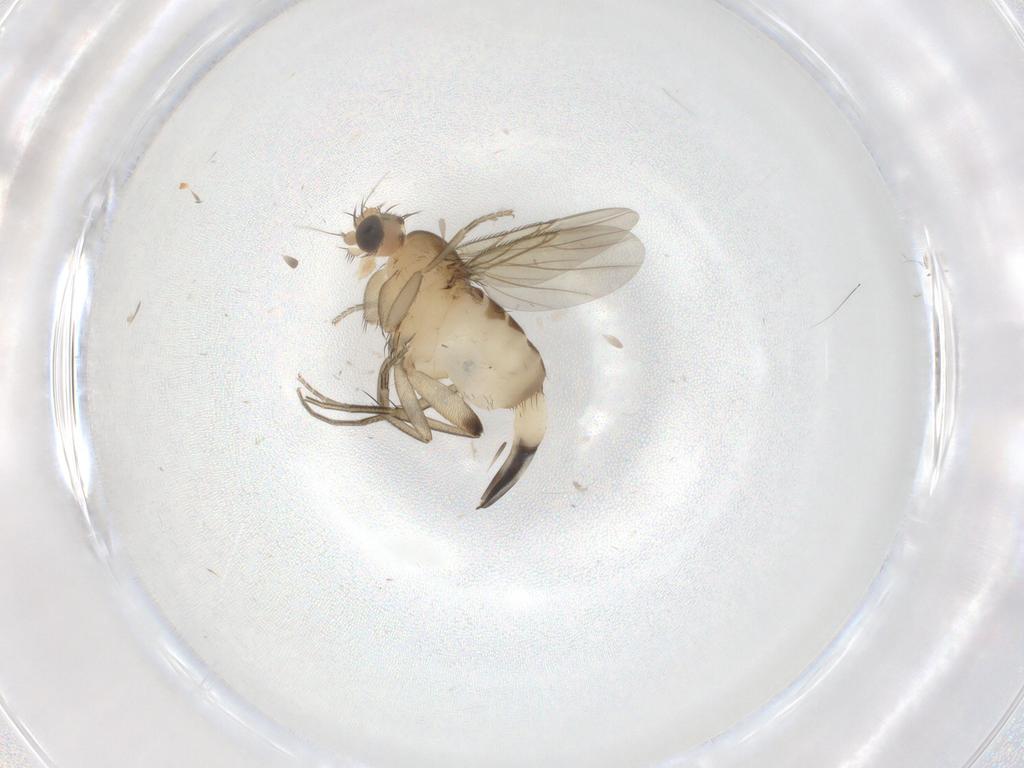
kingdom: Animalia
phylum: Arthropoda
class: Insecta
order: Diptera
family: Phoridae
